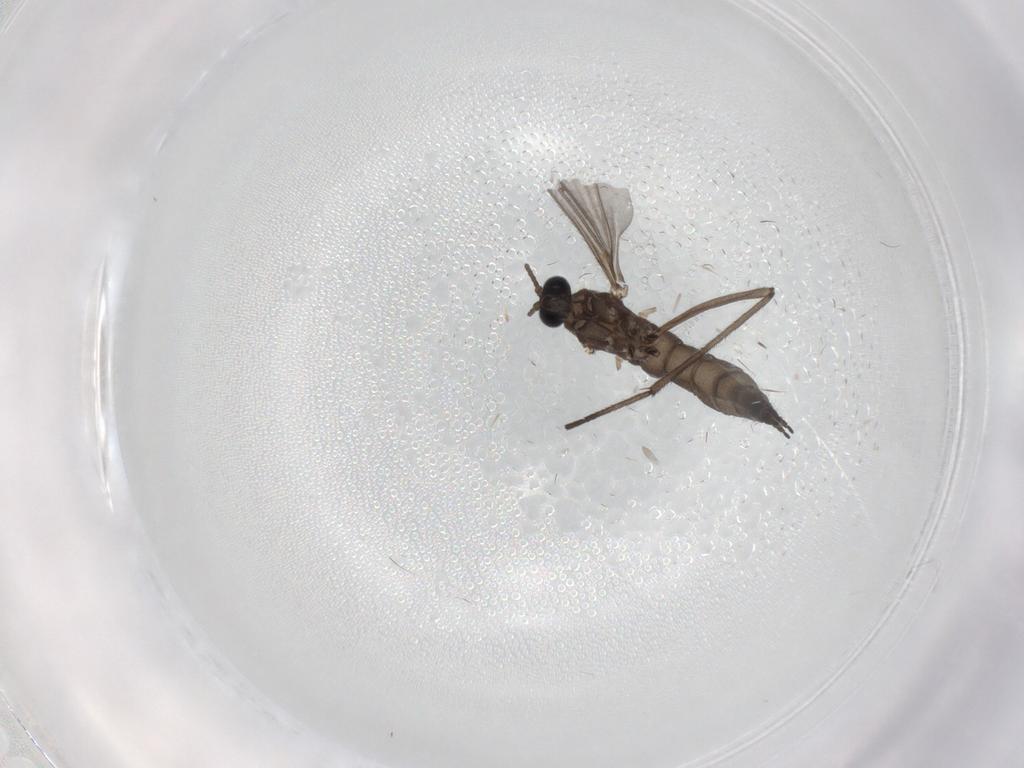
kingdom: Animalia
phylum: Arthropoda
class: Insecta
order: Diptera
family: Sciaridae
